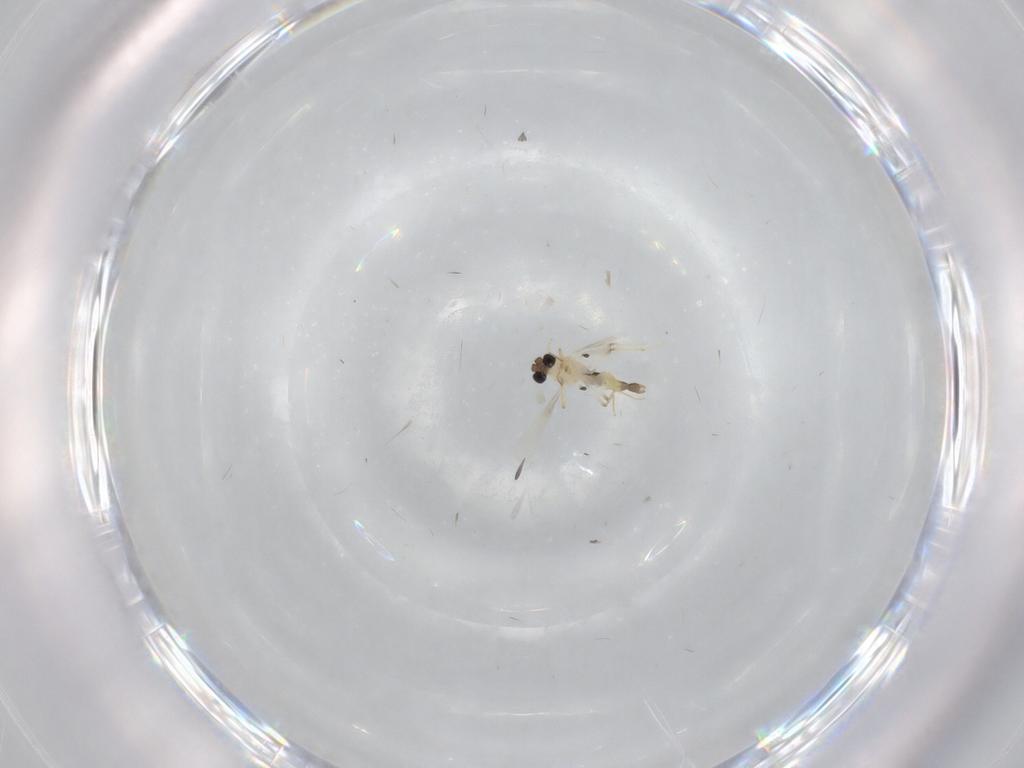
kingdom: Animalia
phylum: Arthropoda
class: Insecta
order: Diptera
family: Chironomidae
